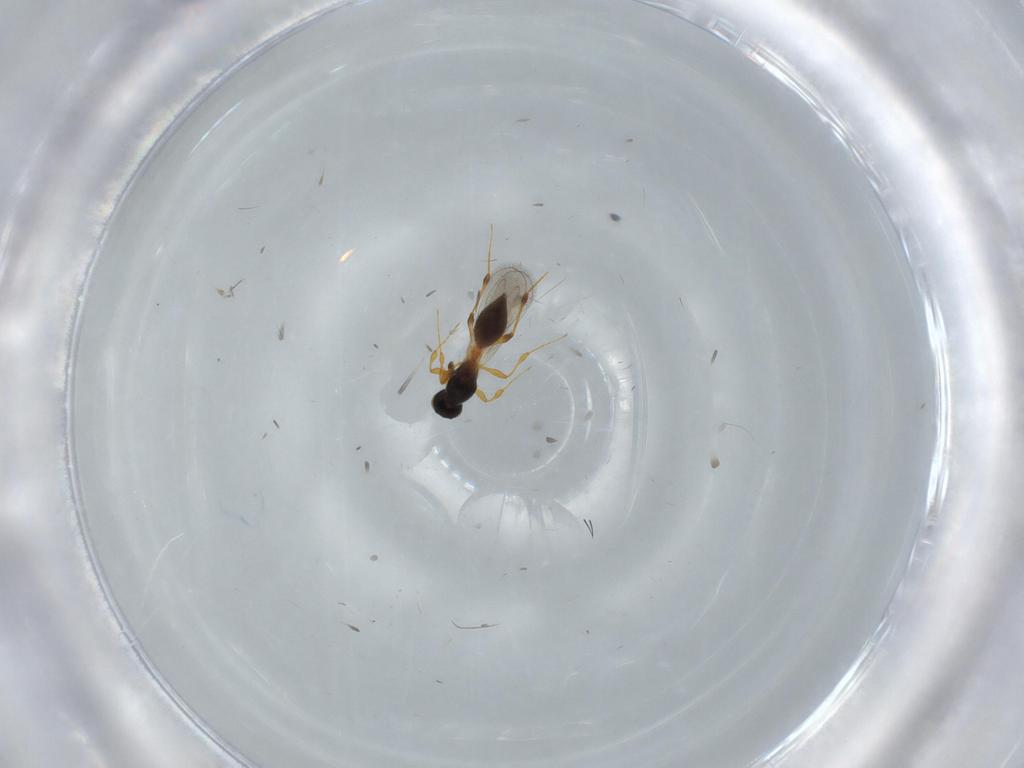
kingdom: Animalia
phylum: Arthropoda
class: Insecta
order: Hymenoptera
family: Platygastridae
